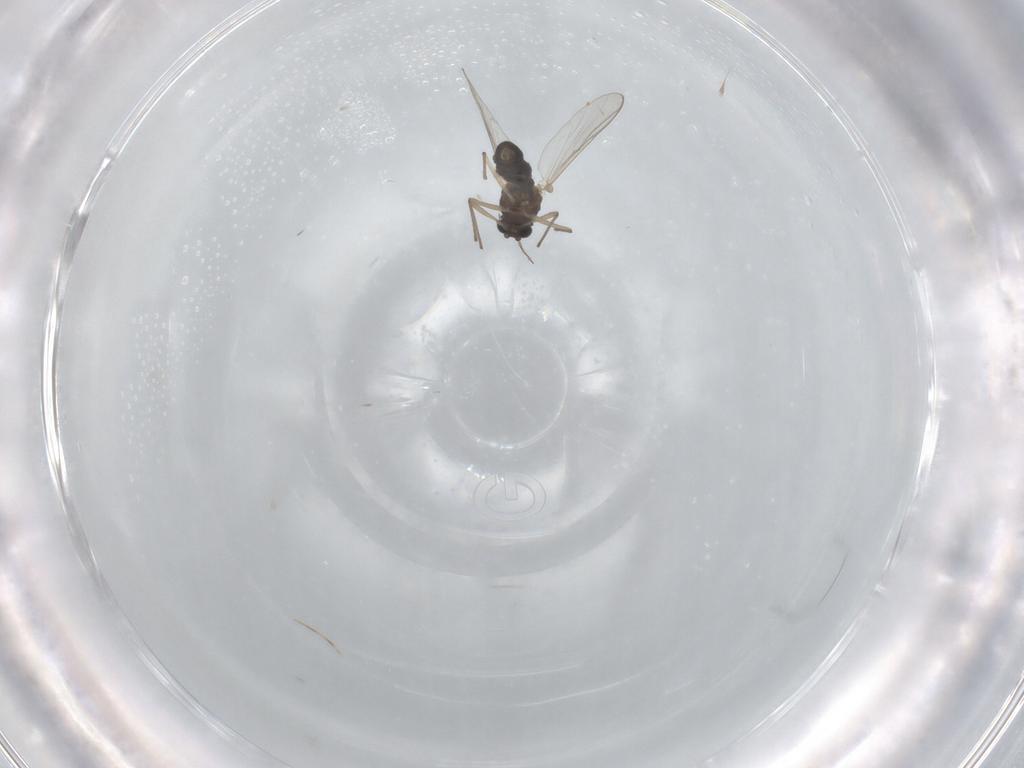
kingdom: Animalia
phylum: Arthropoda
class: Insecta
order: Diptera
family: Chironomidae
